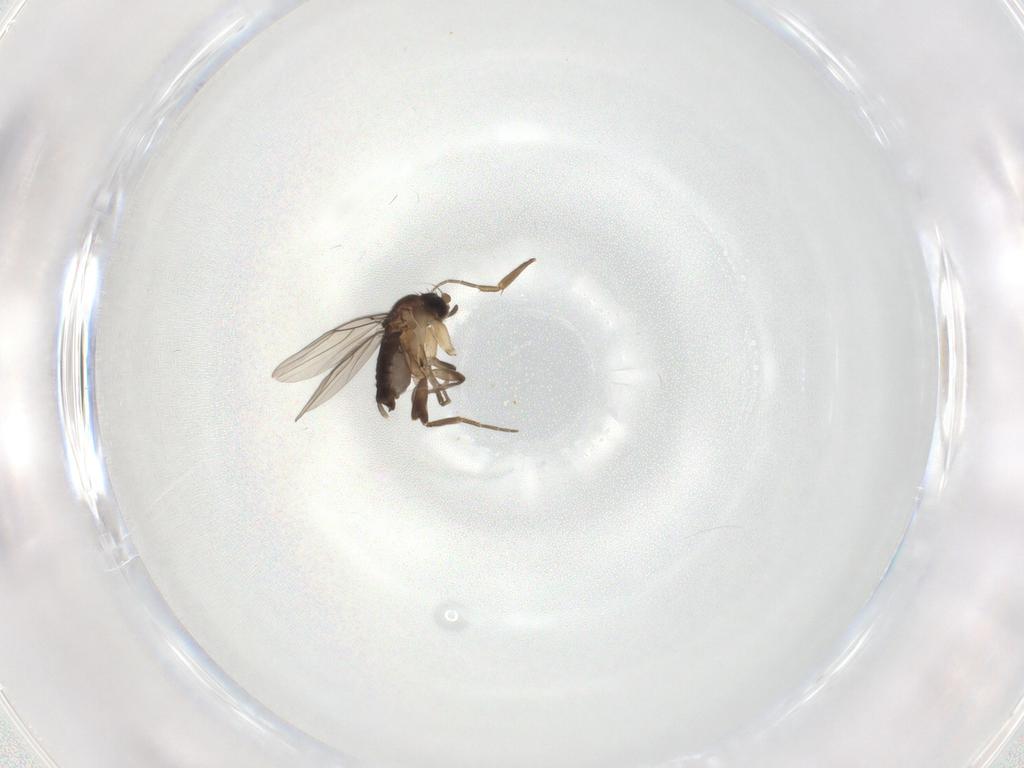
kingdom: Animalia
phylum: Arthropoda
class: Insecta
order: Diptera
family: Phoridae
